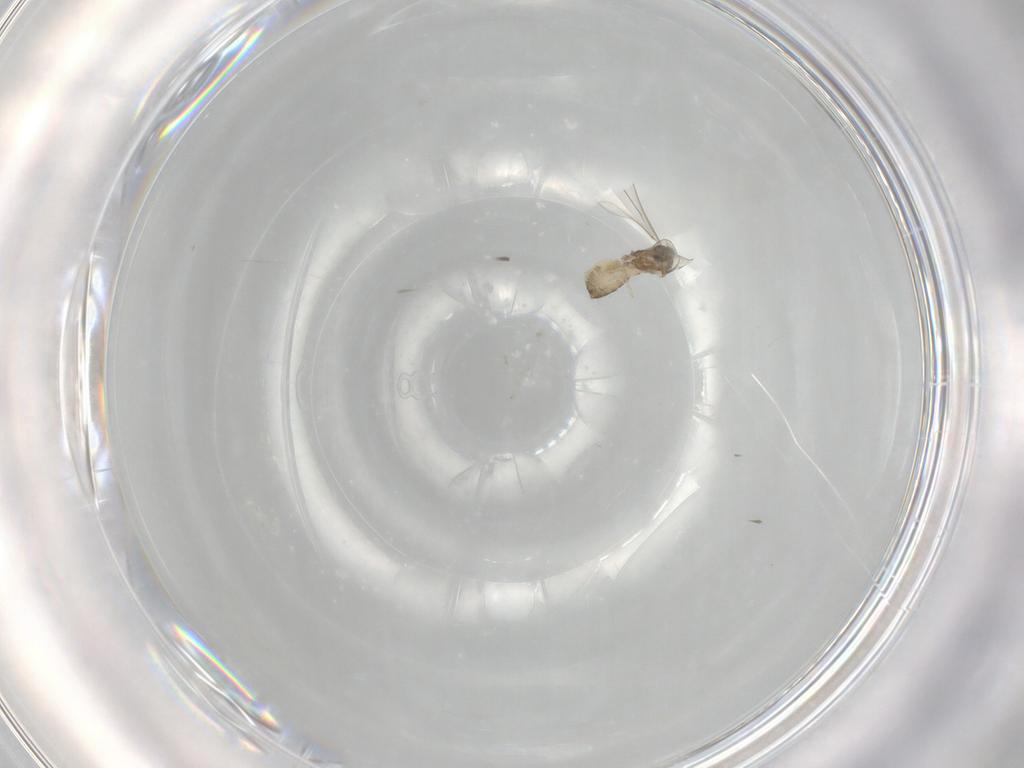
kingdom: Animalia
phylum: Arthropoda
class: Insecta
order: Diptera
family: Cecidomyiidae
